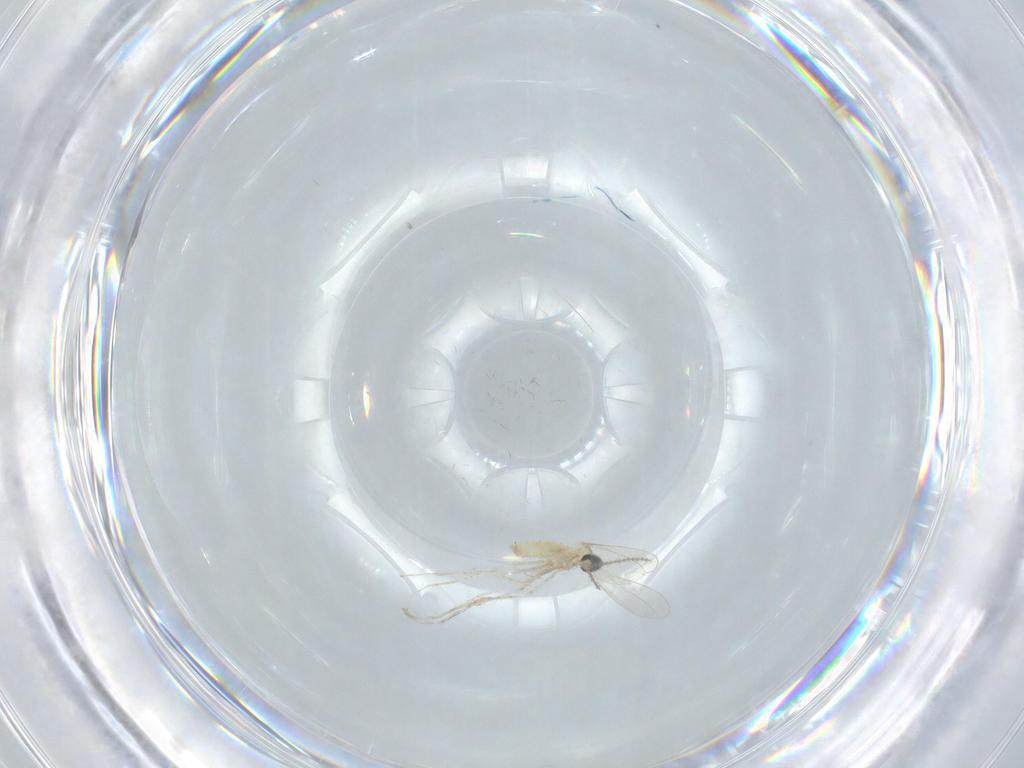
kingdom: Animalia
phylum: Arthropoda
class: Insecta
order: Diptera
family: Cecidomyiidae
